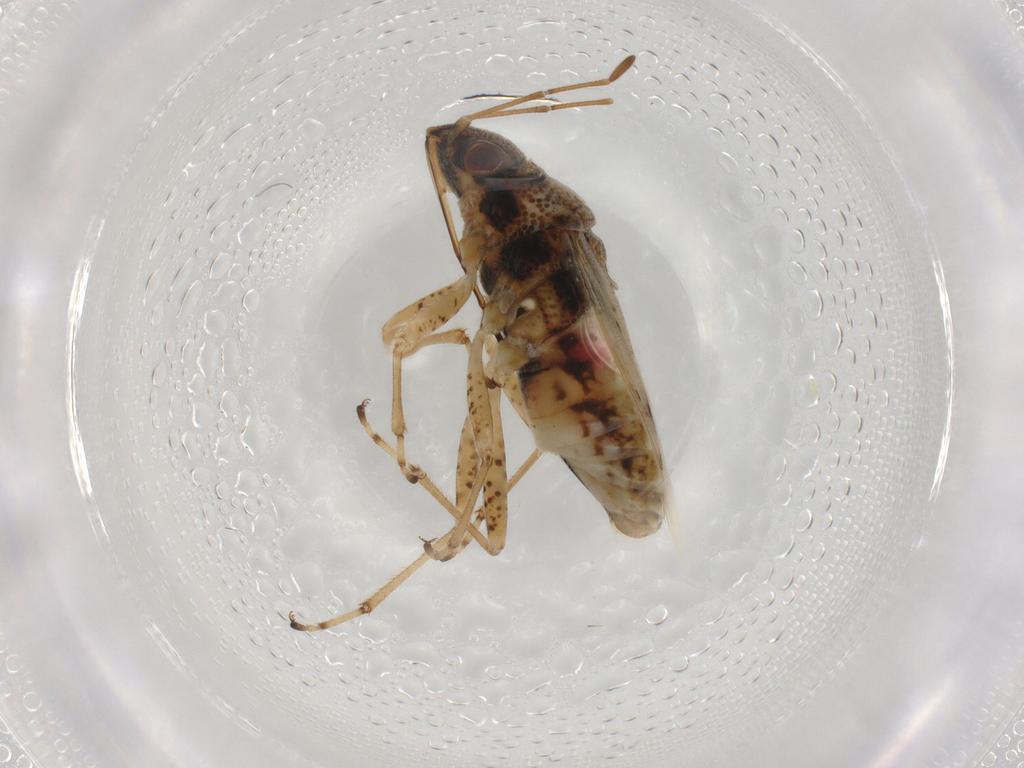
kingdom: Animalia
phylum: Arthropoda
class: Insecta
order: Hemiptera
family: Lygaeidae
